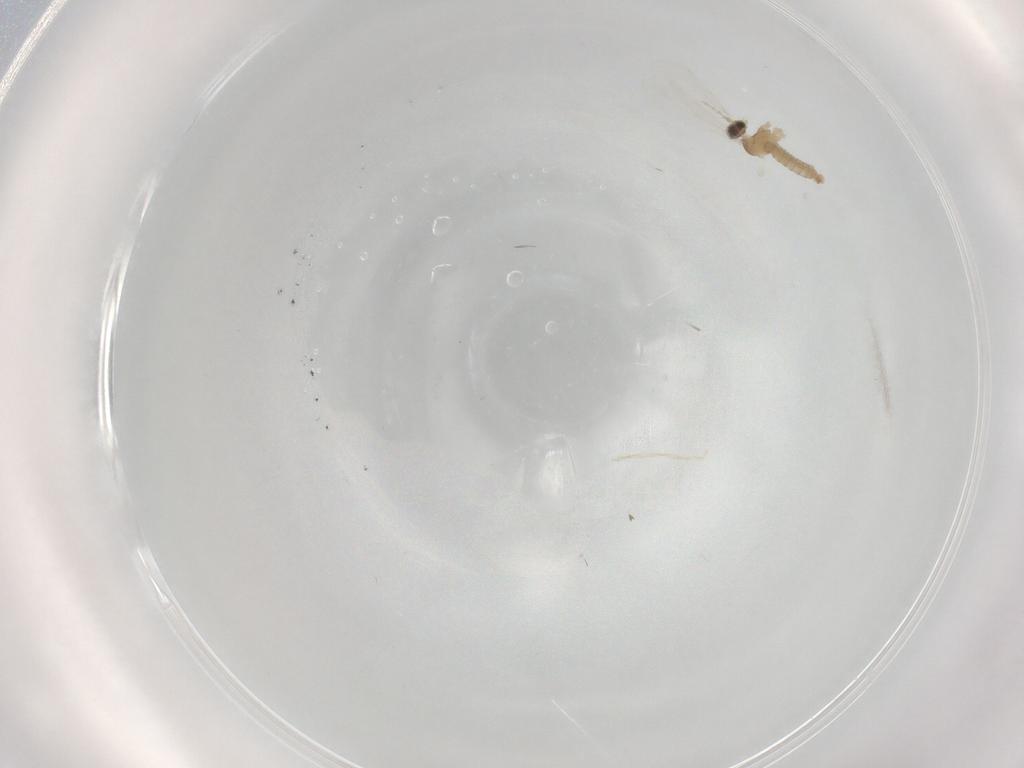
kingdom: Animalia
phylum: Arthropoda
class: Insecta
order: Diptera
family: Cecidomyiidae
